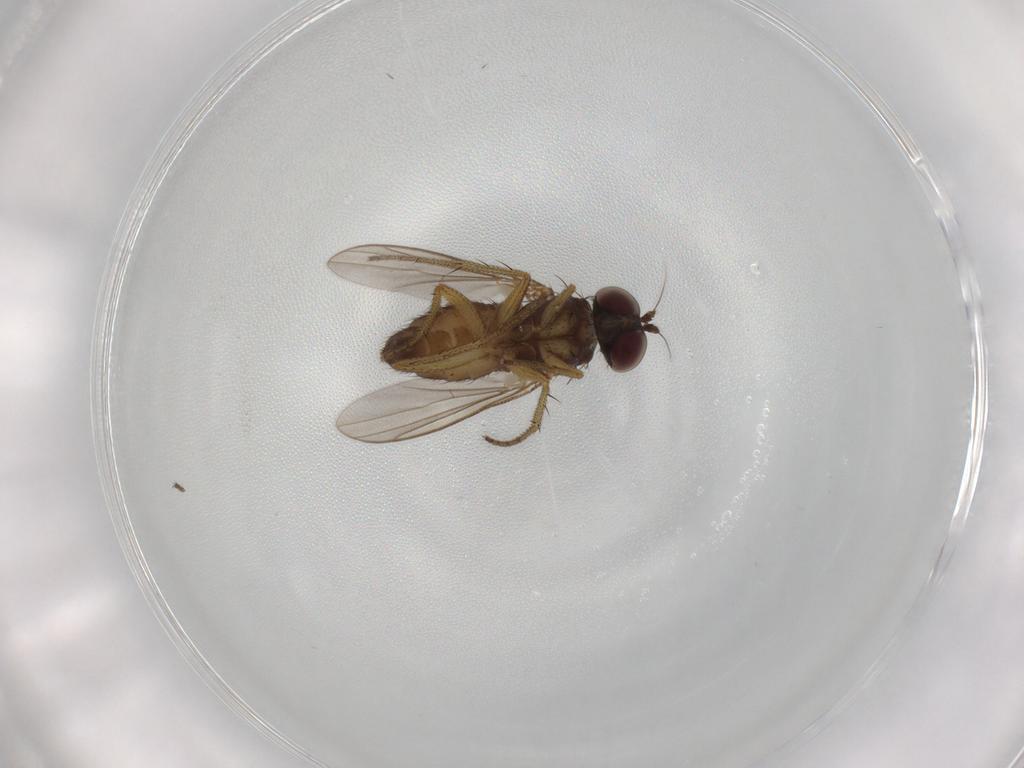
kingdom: Animalia
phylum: Arthropoda
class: Insecta
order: Diptera
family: Dolichopodidae
